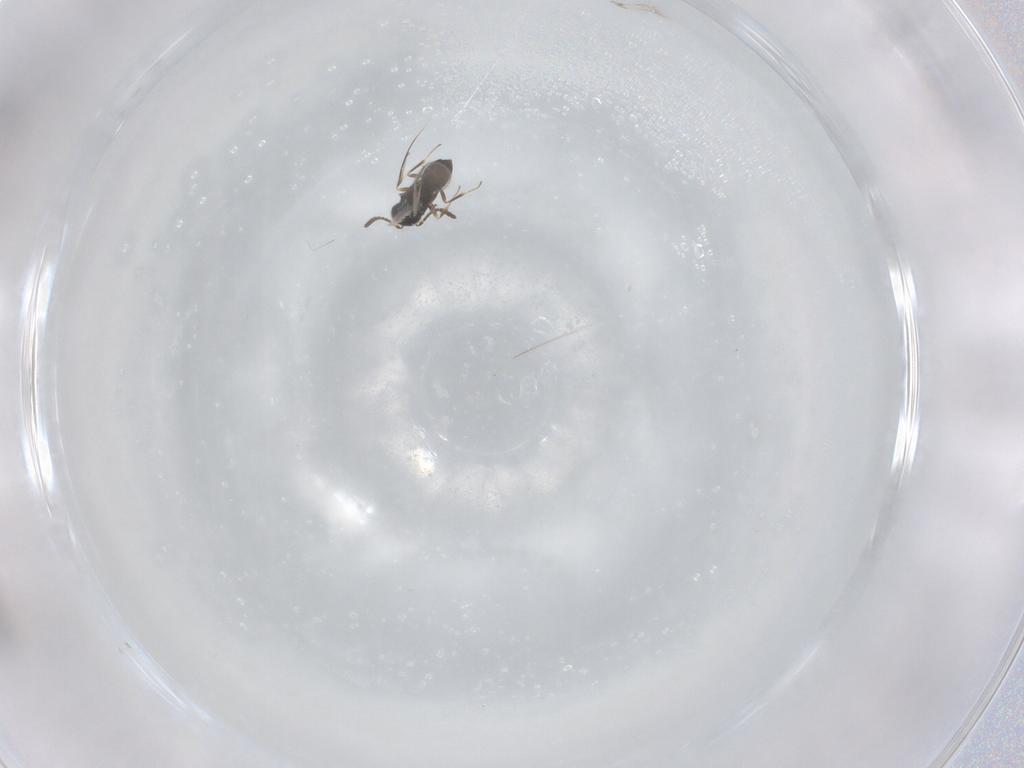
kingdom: Animalia
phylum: Arthropoda
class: Insecta
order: Hymenoptera
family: Scelionidae
